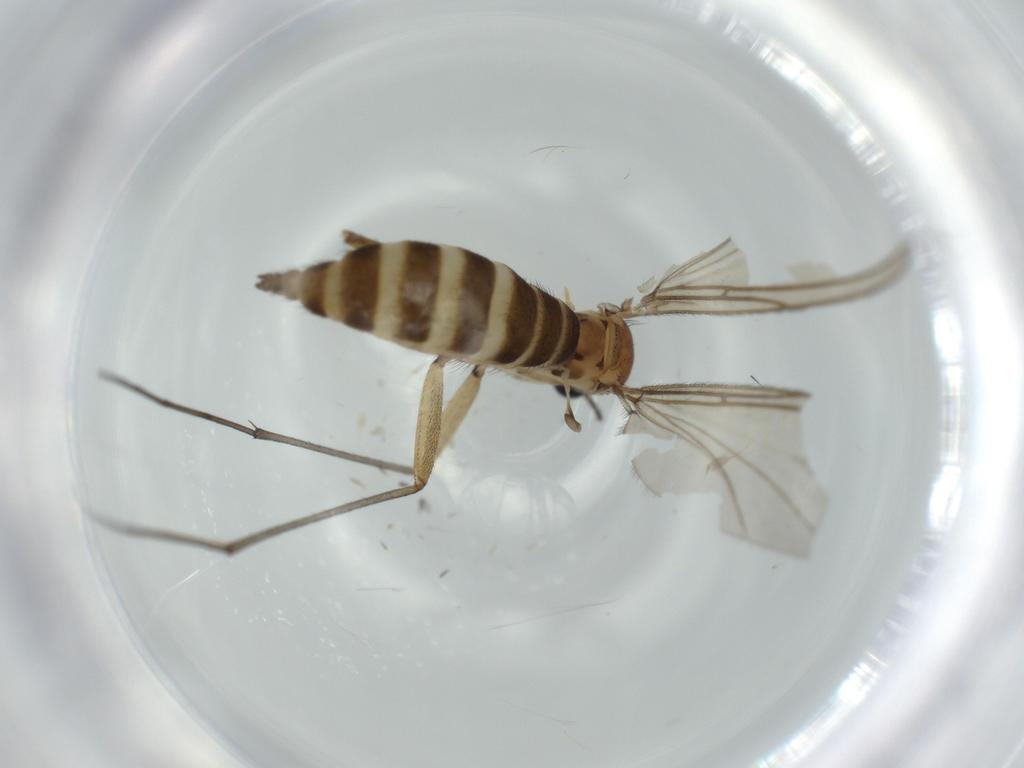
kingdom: Animalia
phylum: Arthropoda
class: Insecta
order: Diptera
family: Sciaridae
